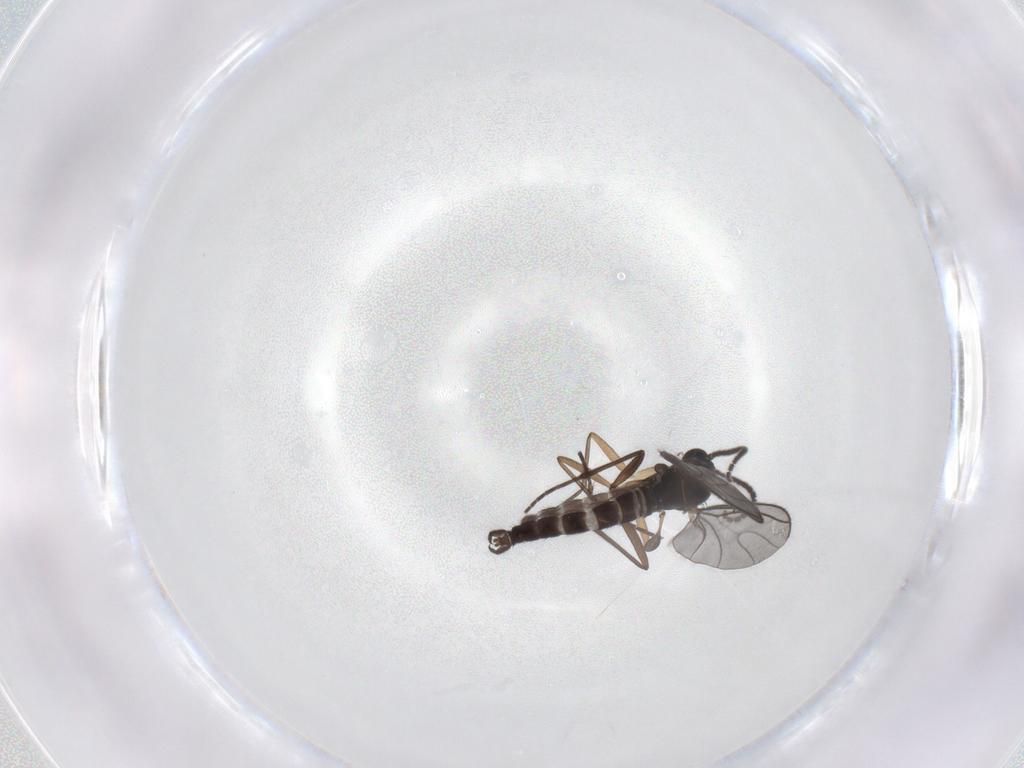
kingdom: Animalia
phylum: Arthropoda
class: Insecta
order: Diptera
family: Sciaridae
